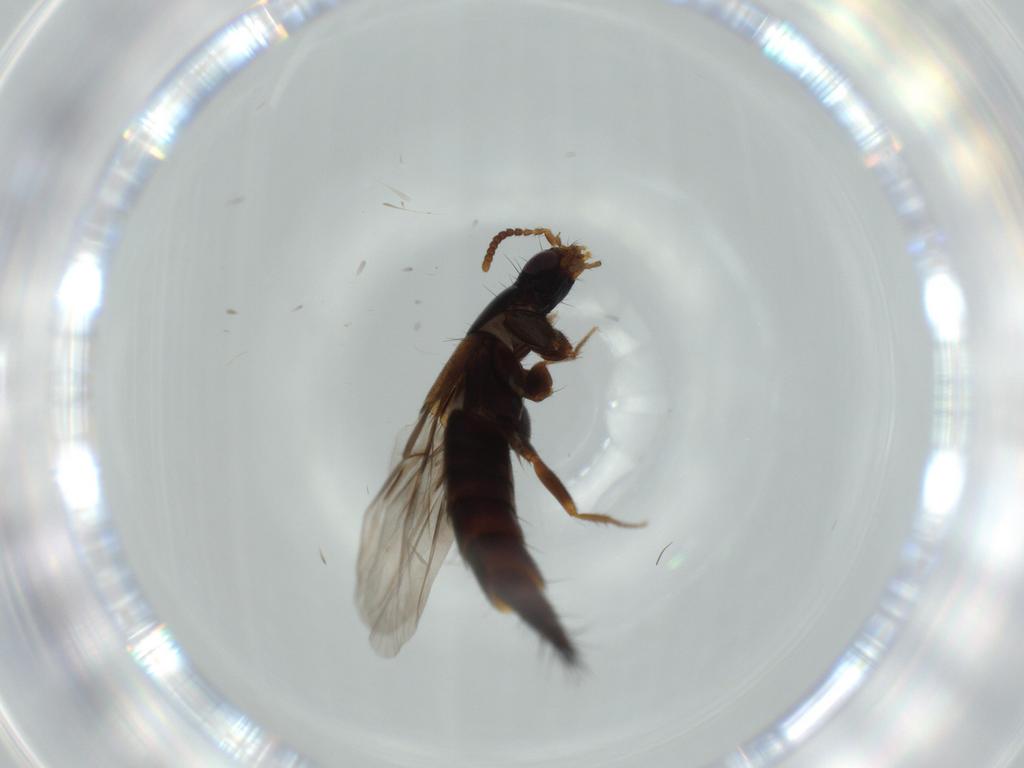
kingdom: Animalia
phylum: Arthropoda
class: Insecta
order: Coleoptera
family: Staphylinidae
